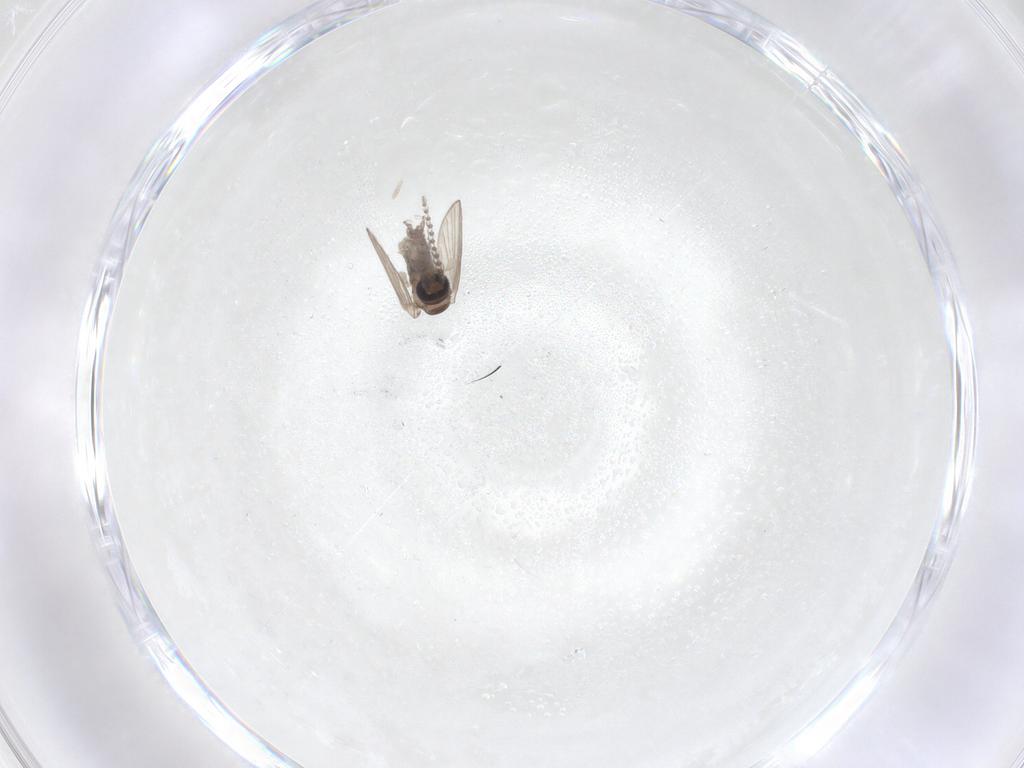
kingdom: Animalia
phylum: Arthropoda
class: Insecta
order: Diptera
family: Psychodidae
